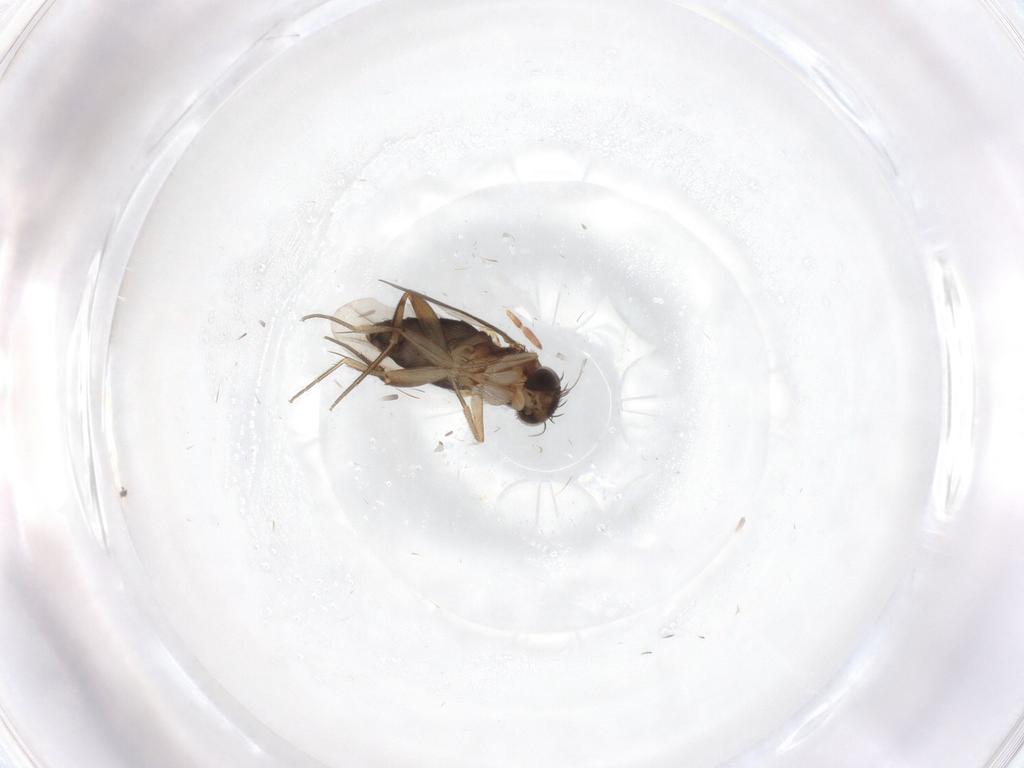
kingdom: Animalia
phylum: Arthropoda
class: Insecta
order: Diptera
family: Phoridae
